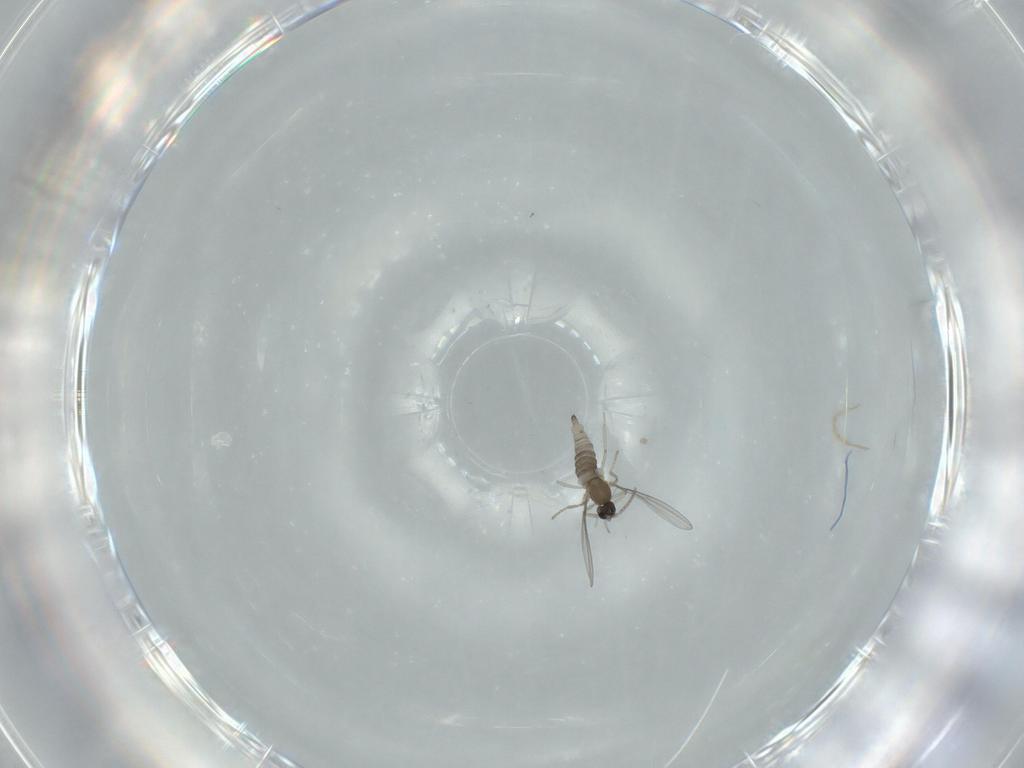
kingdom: Animalia
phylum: Arthropoda
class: Insecta
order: Diptera
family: Cecidomyiidae
